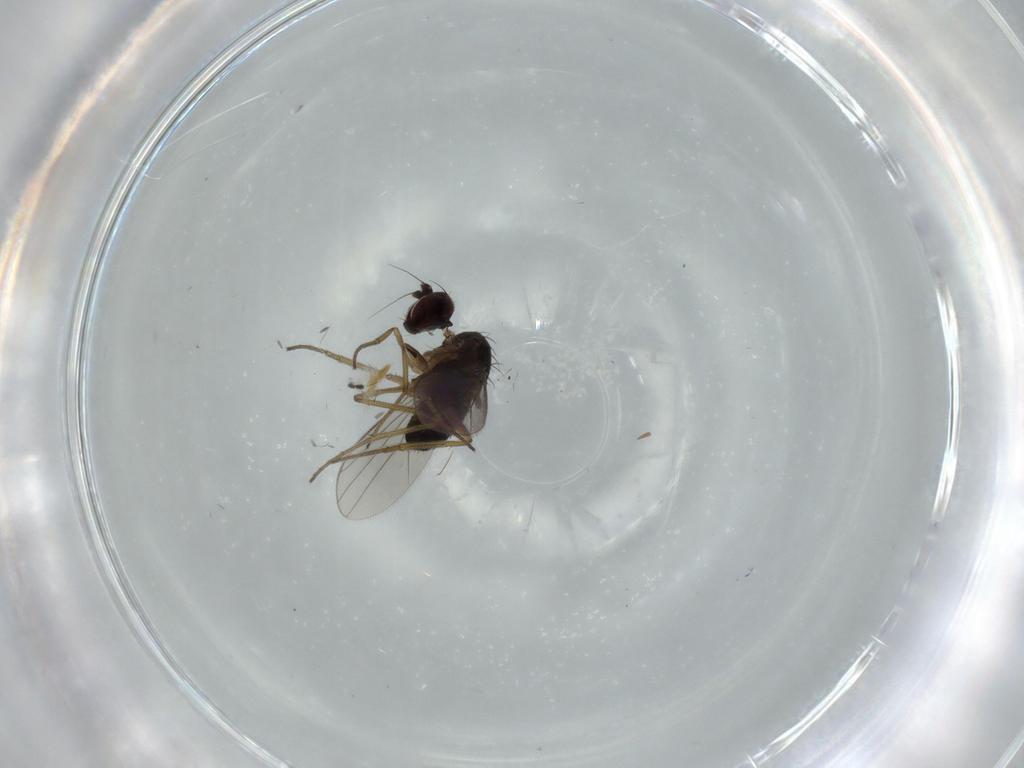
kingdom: Animalia
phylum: Arthropoda
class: Insecta
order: Diptera
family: Dolichopodidae
